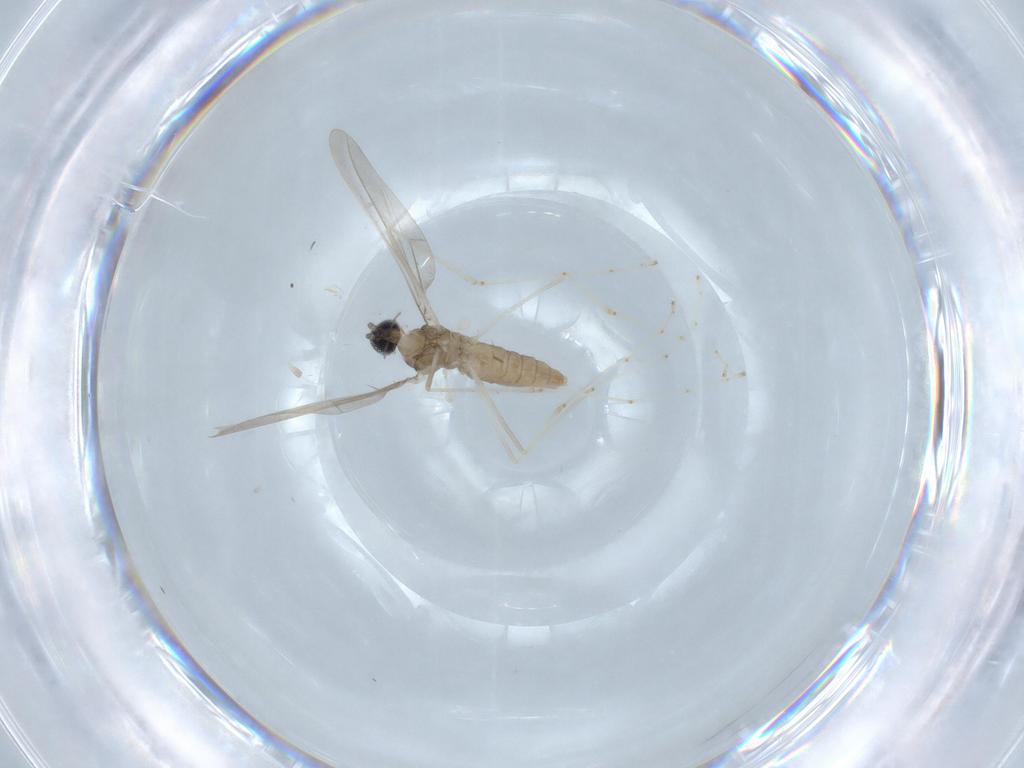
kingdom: Animalia
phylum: Arthropoda
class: Insecta
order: Diptera
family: Cecidomyiidae
